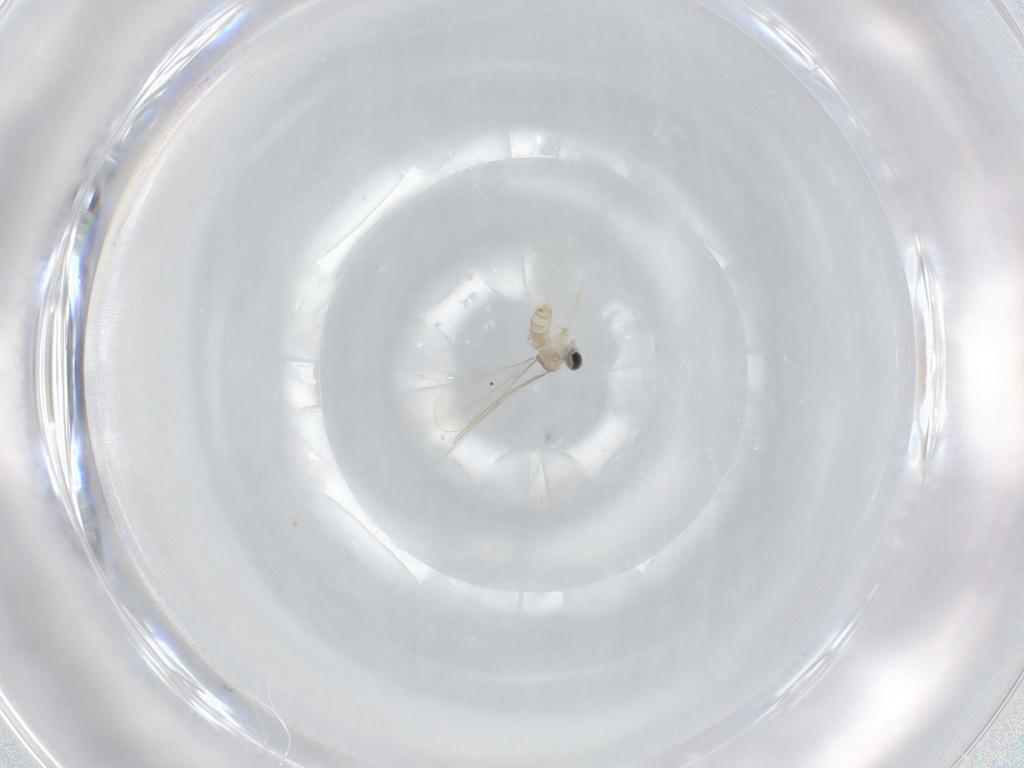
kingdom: Animalia
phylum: Arthropoda
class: Insecta
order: Diptera
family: Cecidomyiidae
